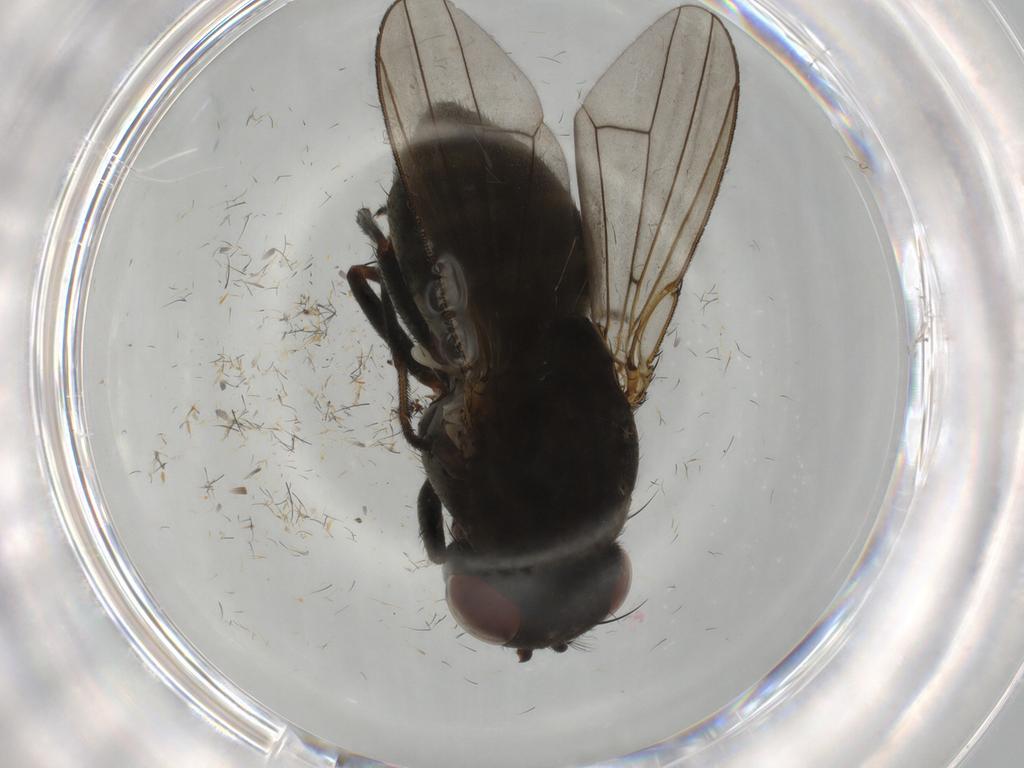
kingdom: Animalia
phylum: Arthropoda
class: Insecta
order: Diptera
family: Ephydridae
